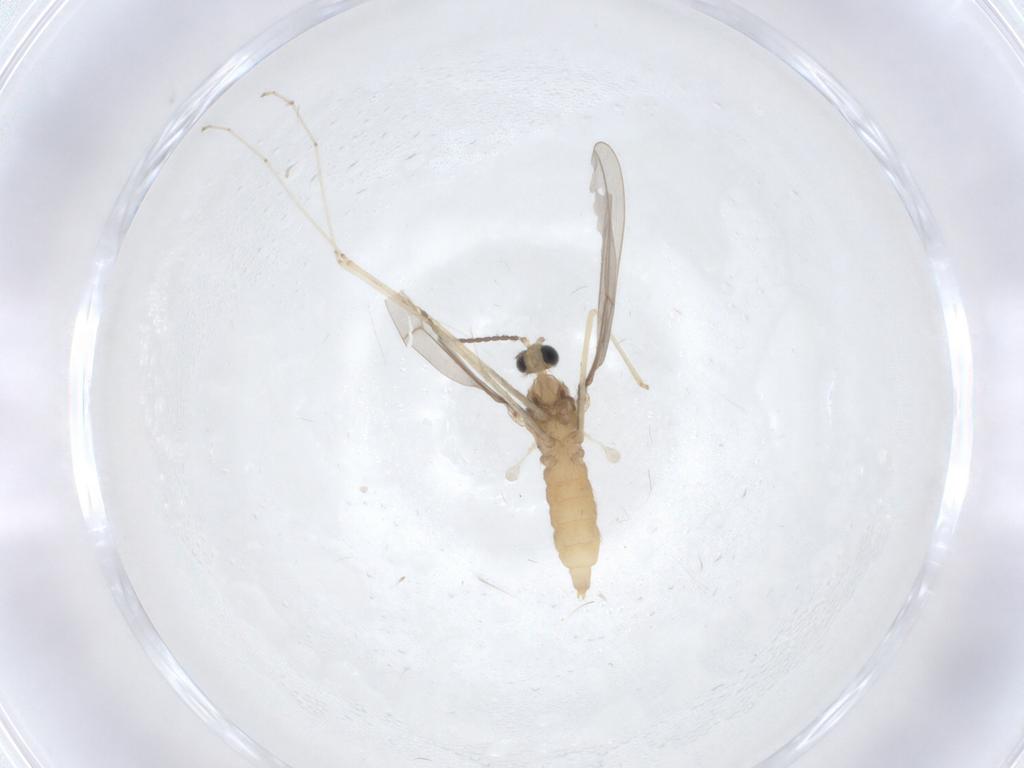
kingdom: Animalia
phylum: Arthropoda
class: Insecta
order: Diptera
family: Cecidomyiidae
